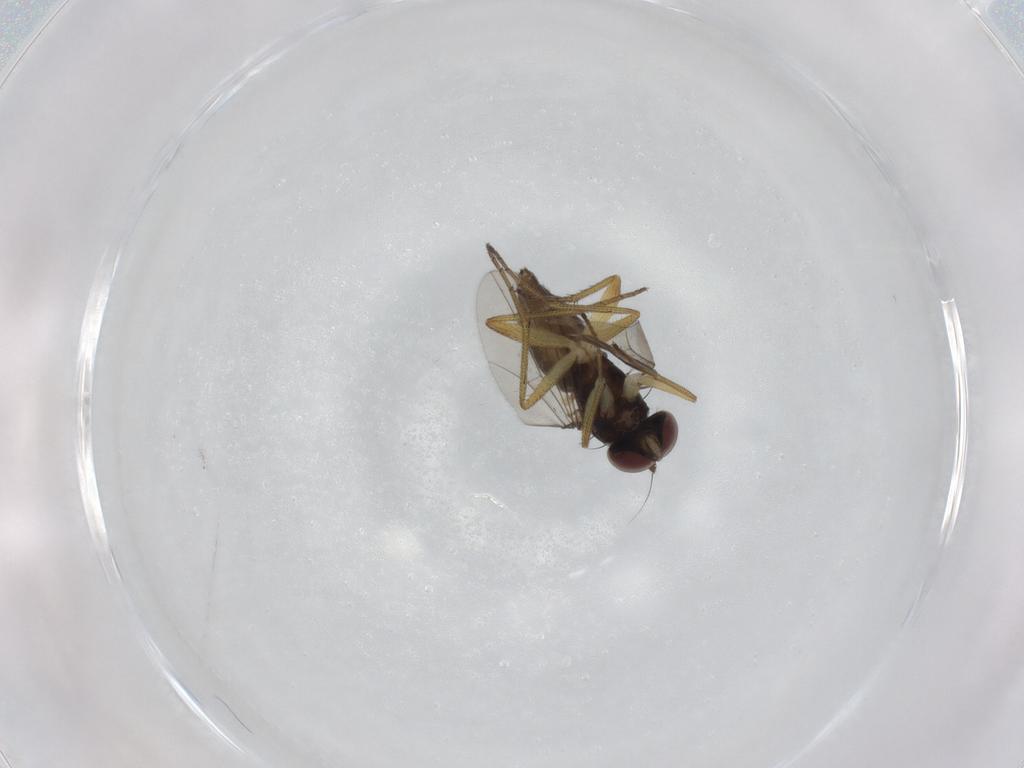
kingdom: Animalia
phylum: Arthropoda
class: Insecta
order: Diptera
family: Dolichopodidae
